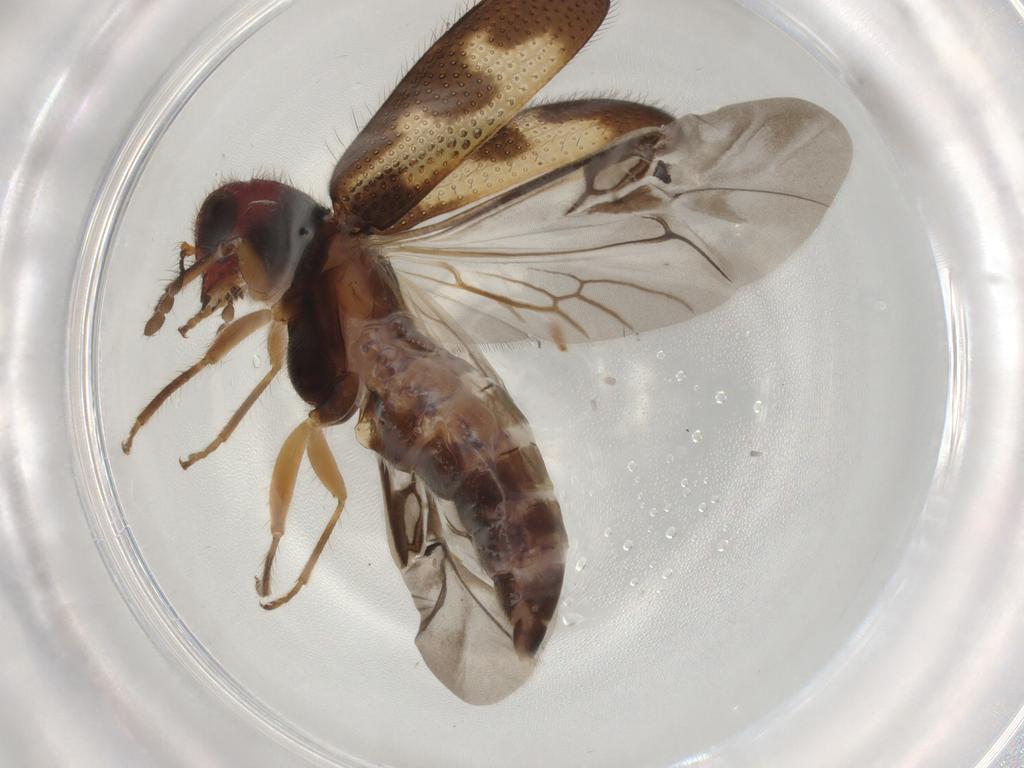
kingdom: Animalia
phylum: Arthropoda
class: Insecta
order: Coleoptera
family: Cleridae
